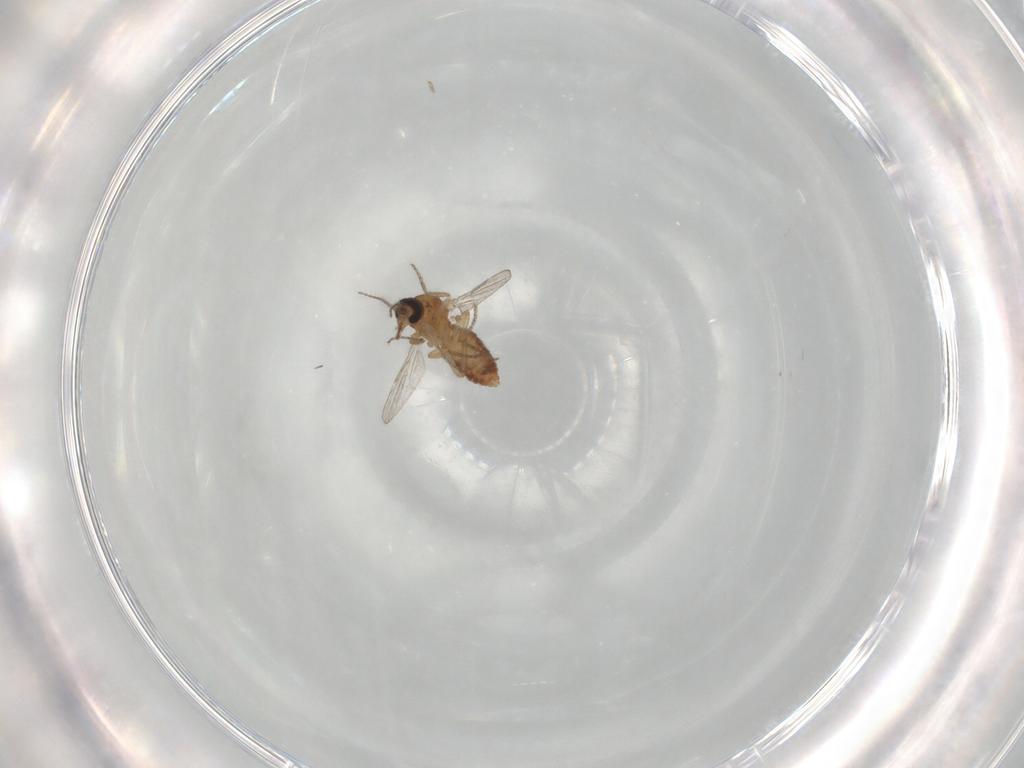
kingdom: Animalia
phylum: Arthropoda
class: Insecta
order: Diptera
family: Ceratopogonidae
